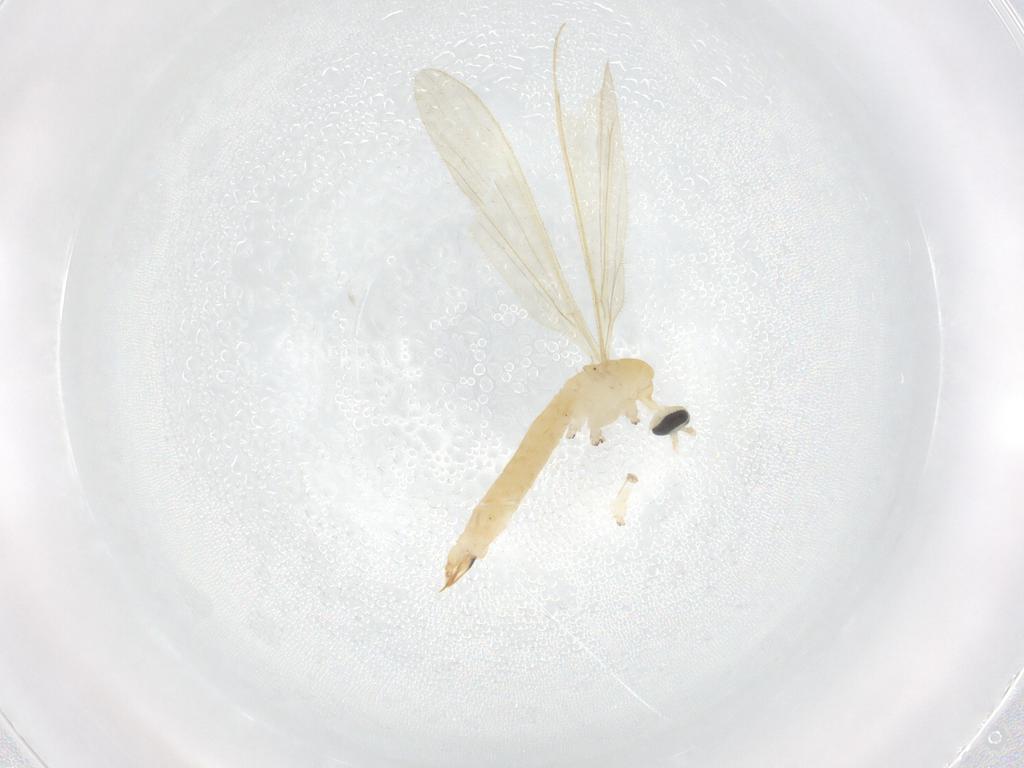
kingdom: Animalia
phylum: Arthropoda
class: Insecta
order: Diptera
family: Limoniidae
